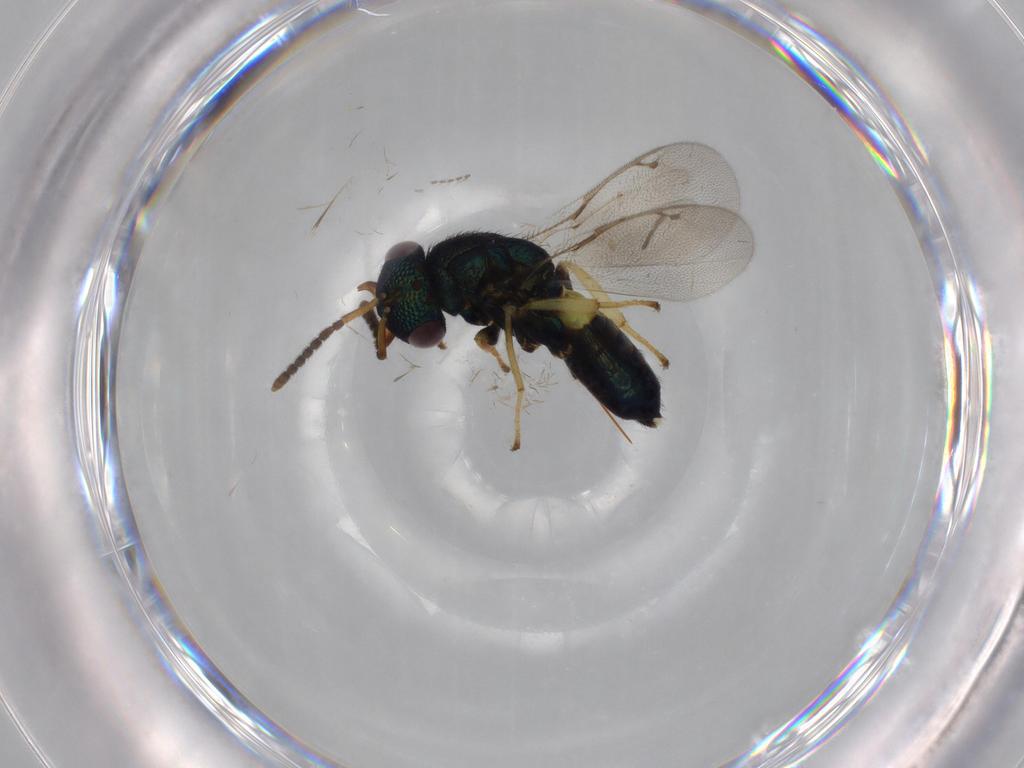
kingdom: Animalia
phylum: Arthropoda
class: Insecta
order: Hymenoptera
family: Pirenidae
